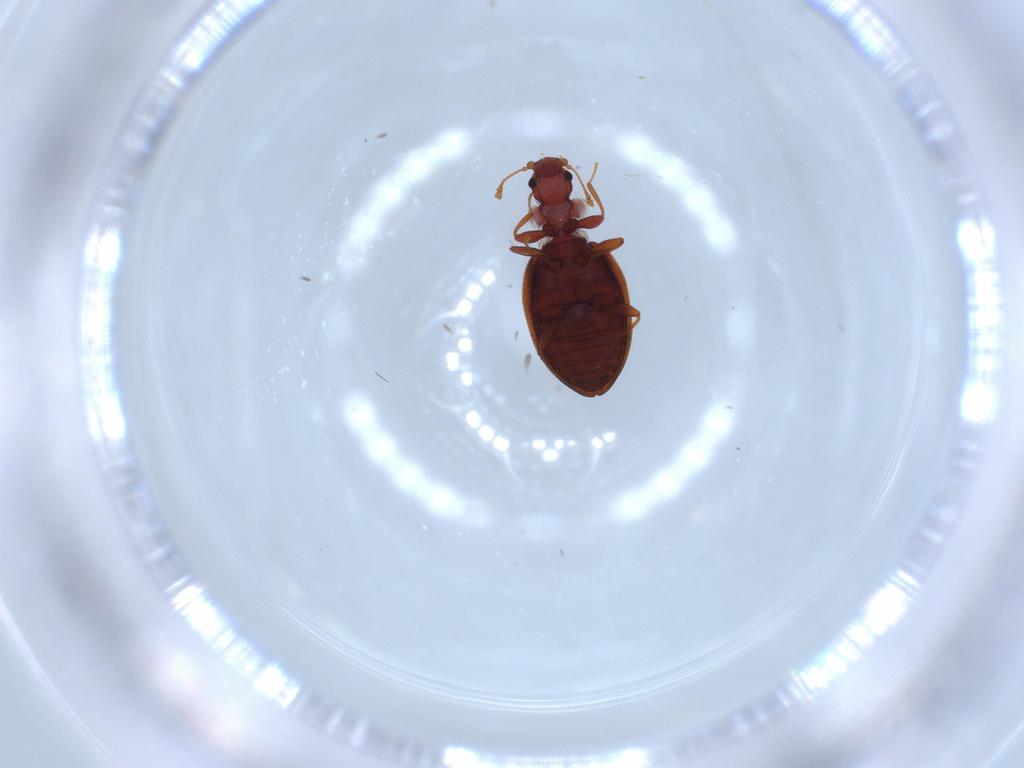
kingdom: Animalia
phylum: Arthropoda
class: Insecta
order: Coleoptera
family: Latridiidae
